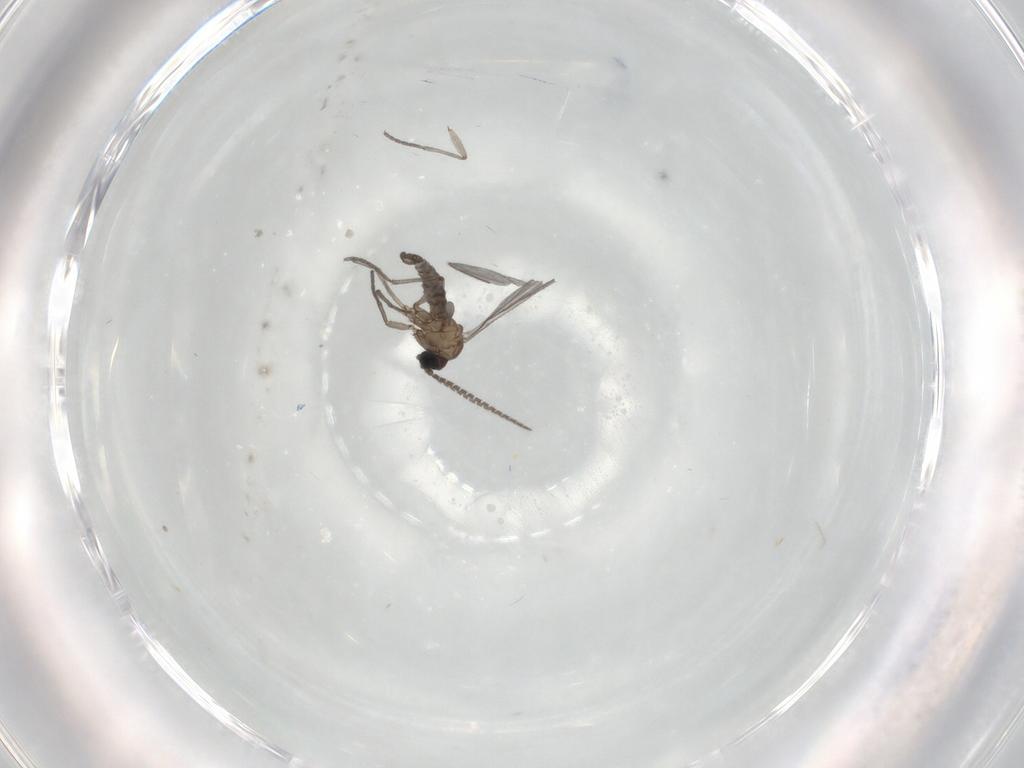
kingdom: Animalia
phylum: Arthropoda
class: Insecta
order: Diptera
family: Sciaridae
